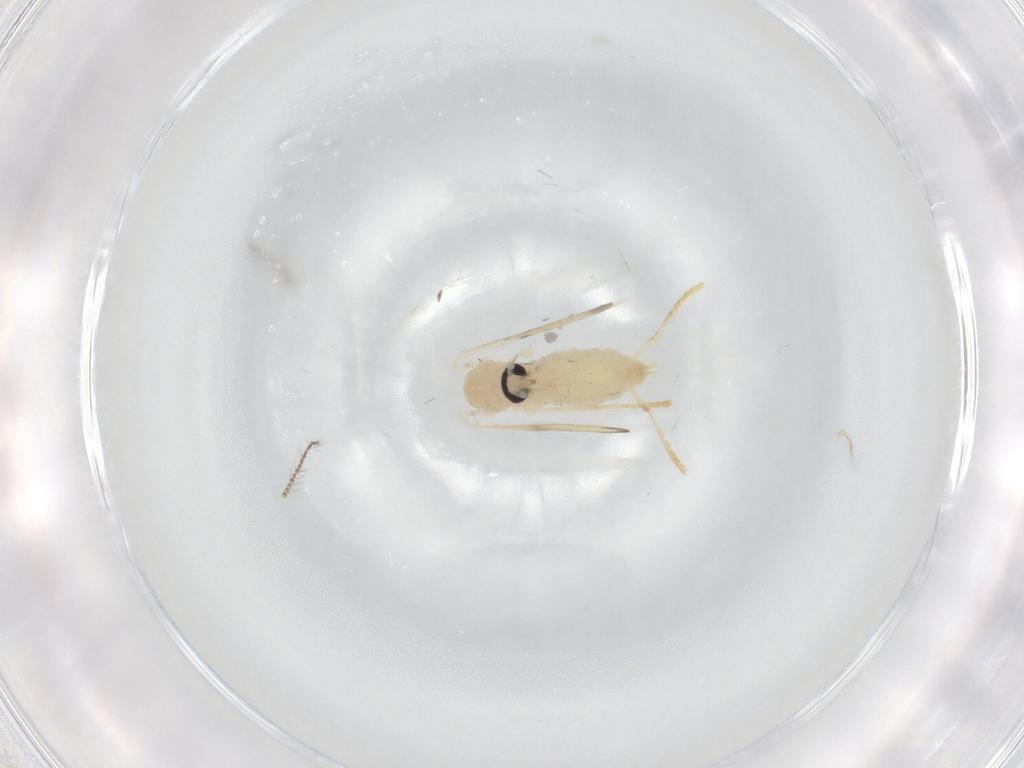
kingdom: Animalia
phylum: Arthropoda
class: Insecta
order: Diptera
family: Psychodidae
